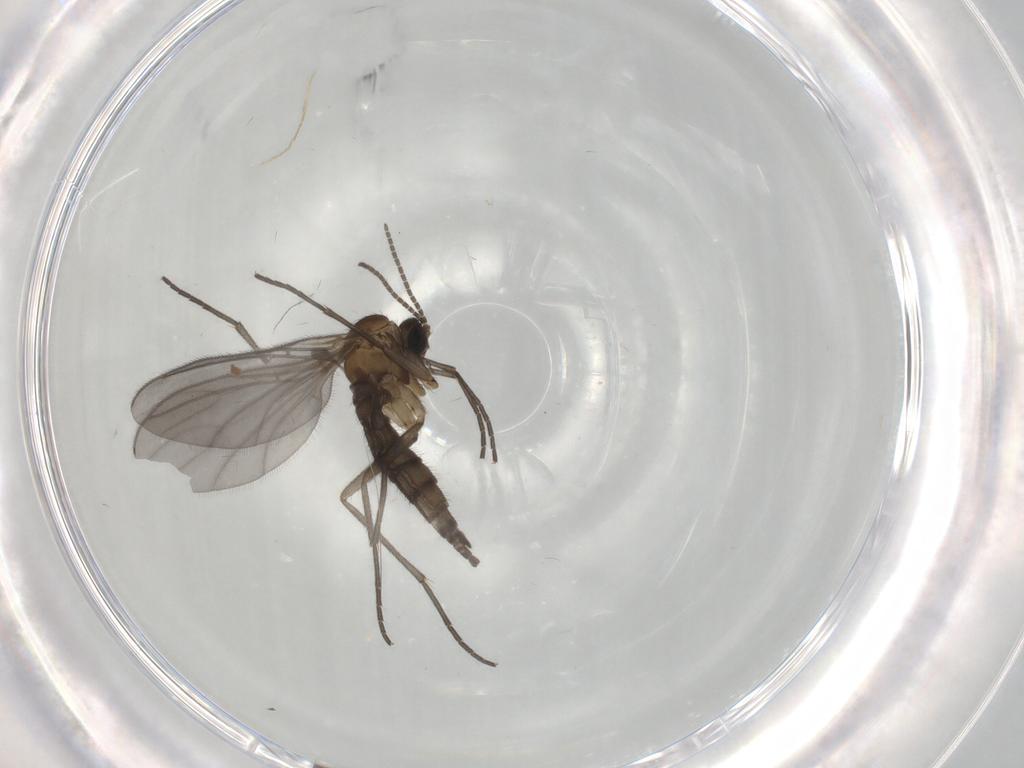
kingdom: Animalia
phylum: Arthropoda
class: Insecta
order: Diptera
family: Sciaridae
